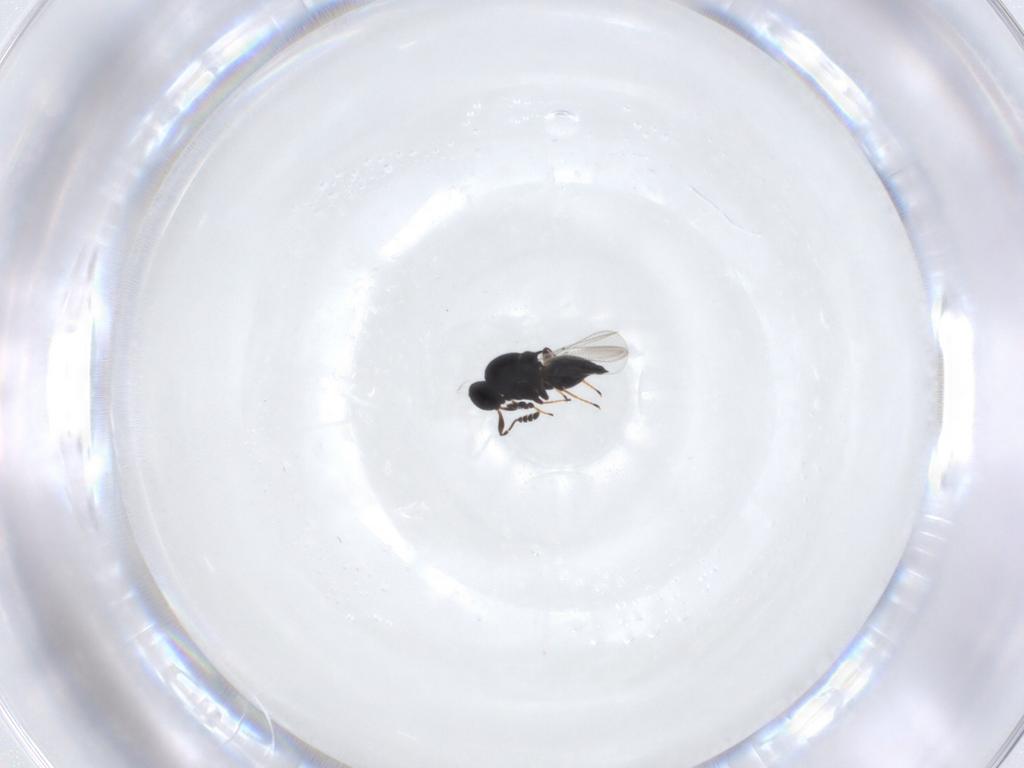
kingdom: Animalia
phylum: Arthropoda
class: Insecta
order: Hymenoptera
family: Platygastridae
